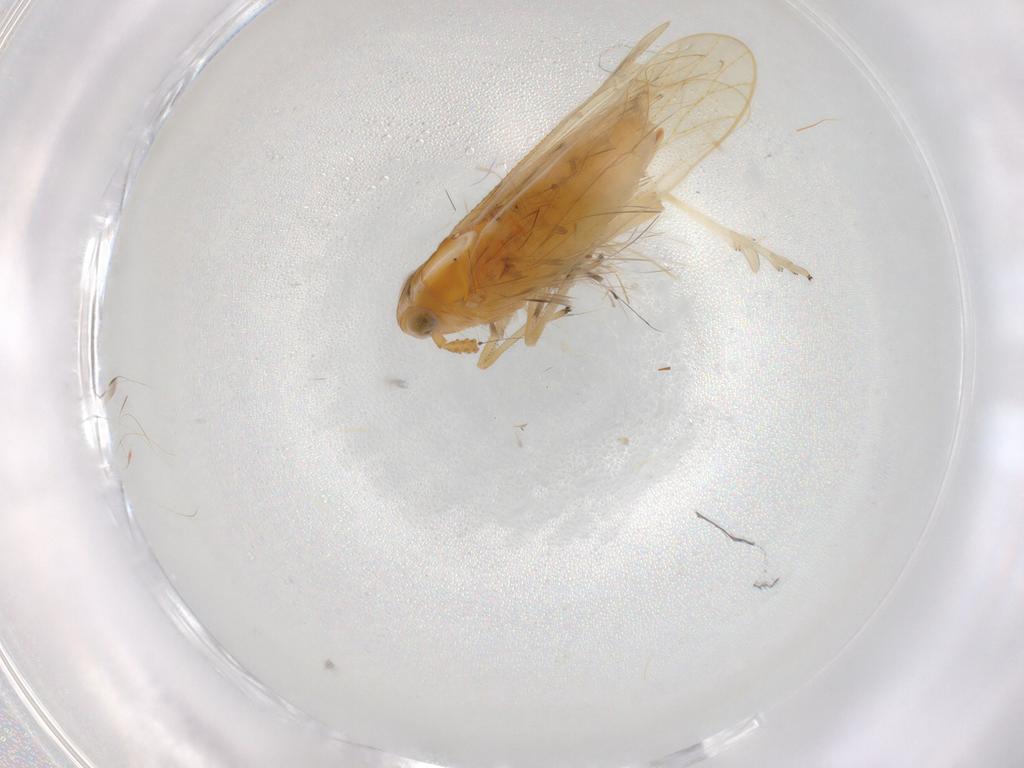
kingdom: Animalia
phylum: Arthropoda
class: Insecta
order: Hemiptera
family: Delphacidae
